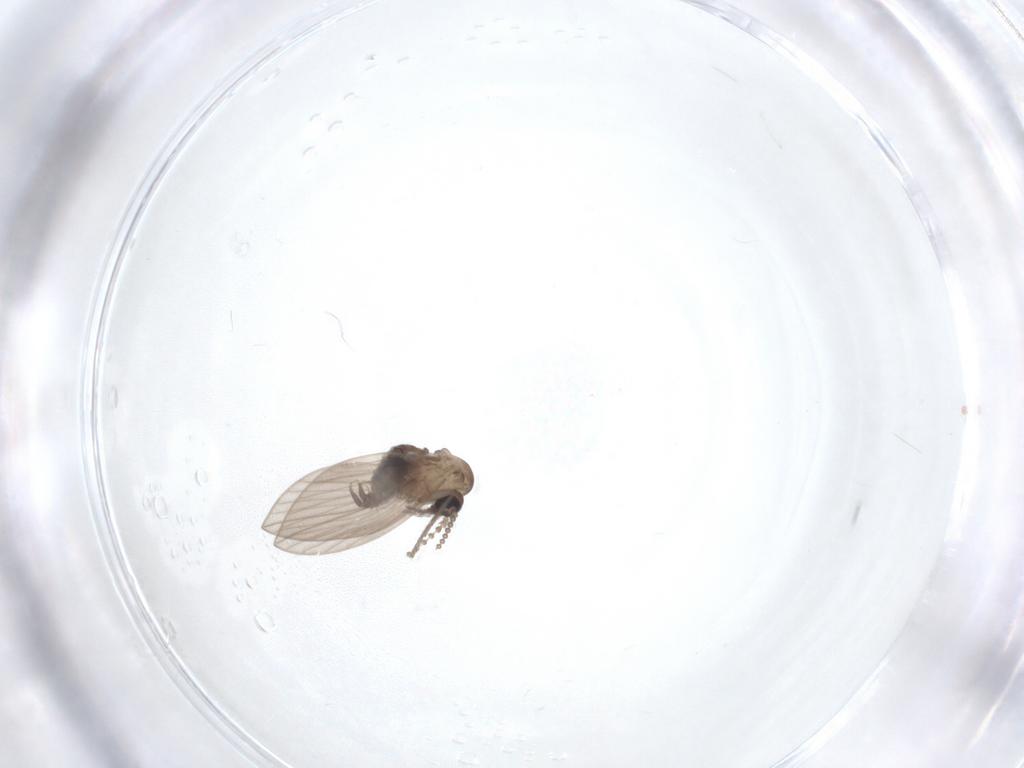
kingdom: Animalia
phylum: Arthropoda
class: Insecta
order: Diptera
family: Psychodidae
